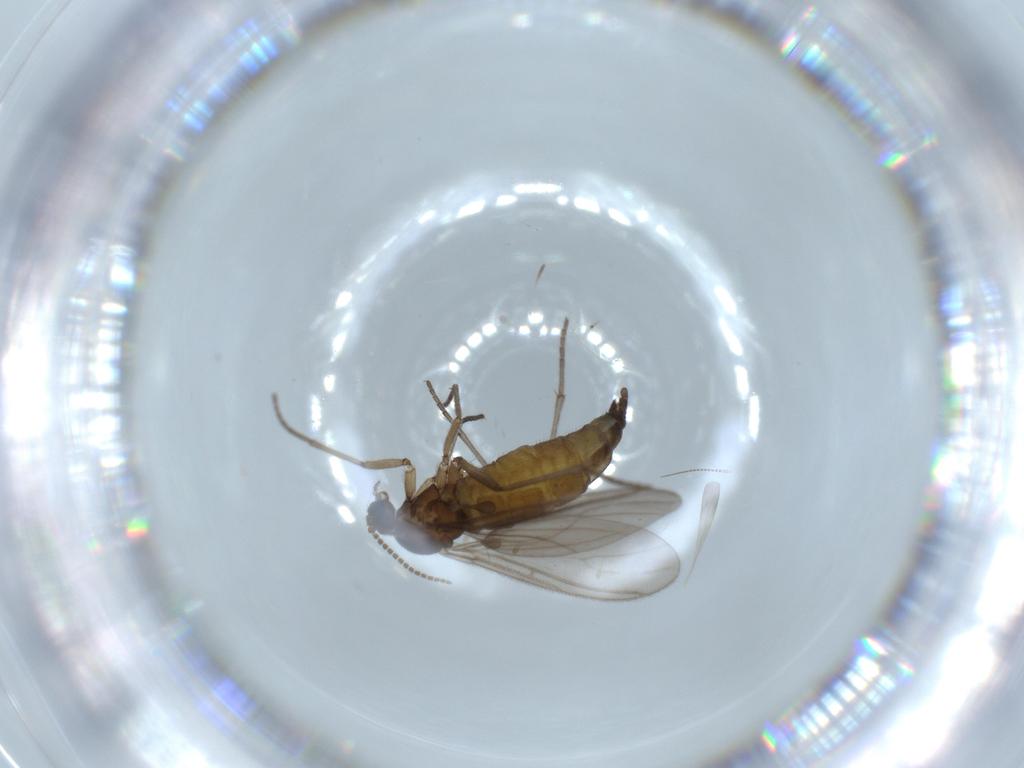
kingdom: Animalia
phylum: Arthropoda
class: Insecta
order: Diptera
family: Sciaridae
